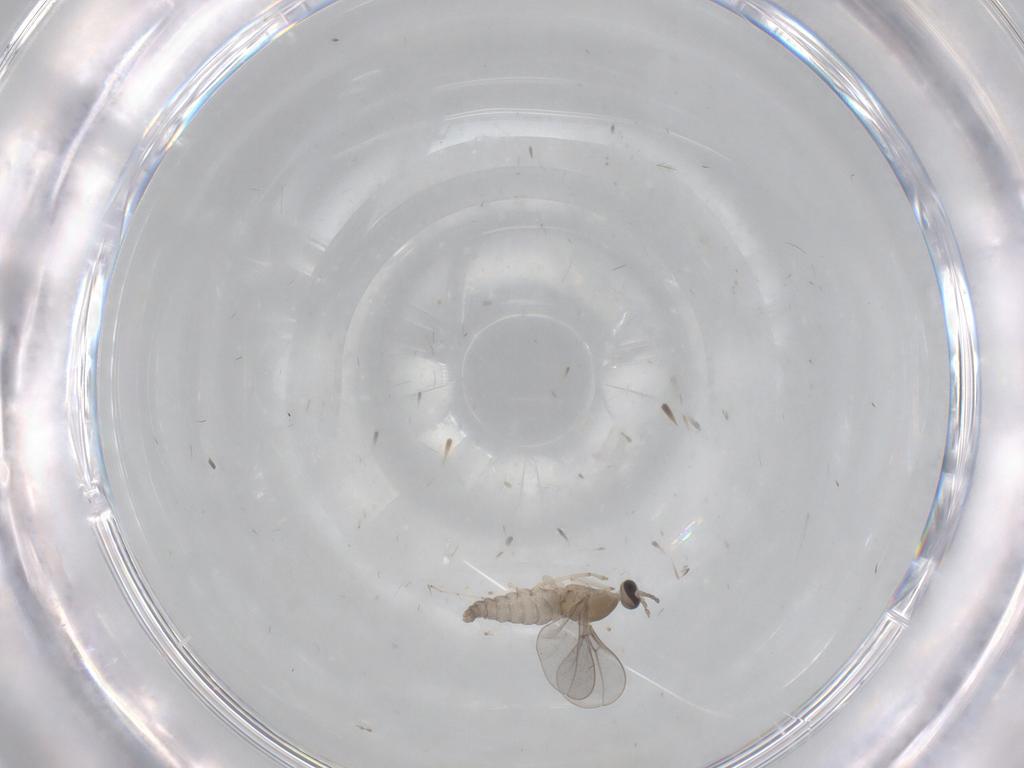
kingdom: Animalia
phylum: Arthropoda
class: Insecta
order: Diptera
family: Cecidomyiidae
